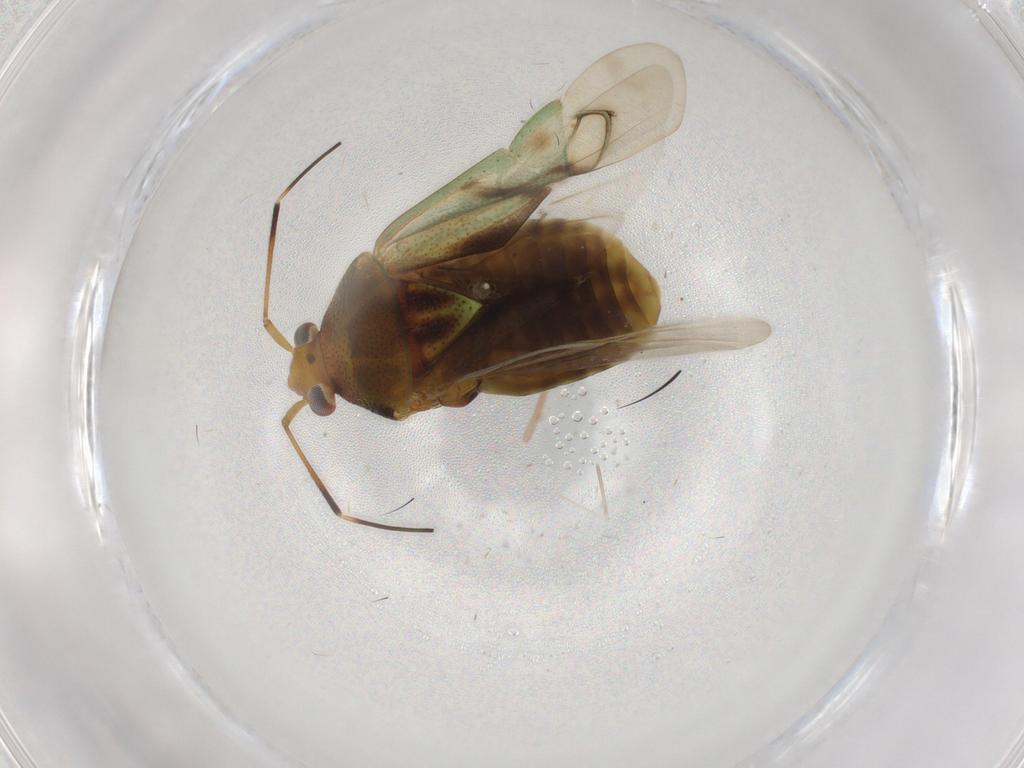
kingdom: Animalia
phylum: Arthropoda
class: Insecta
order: Hemiptera
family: Miridae
